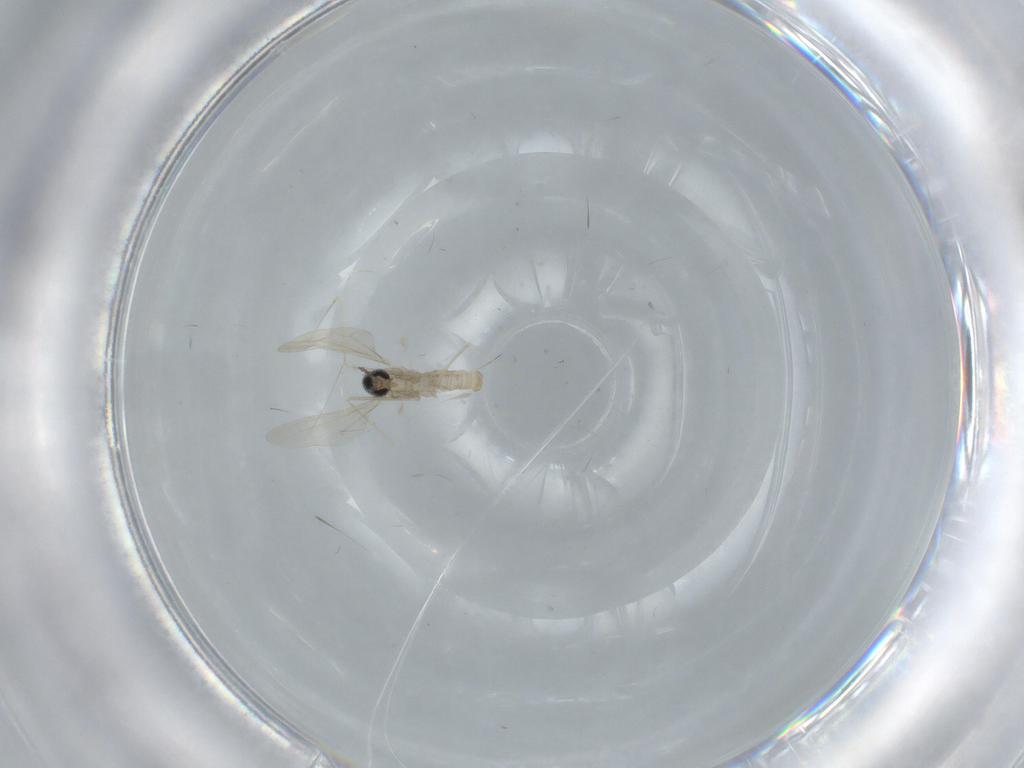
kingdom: Animalia
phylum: Arthropoda
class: Insecta
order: Diptera
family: Cecidomyiidae
